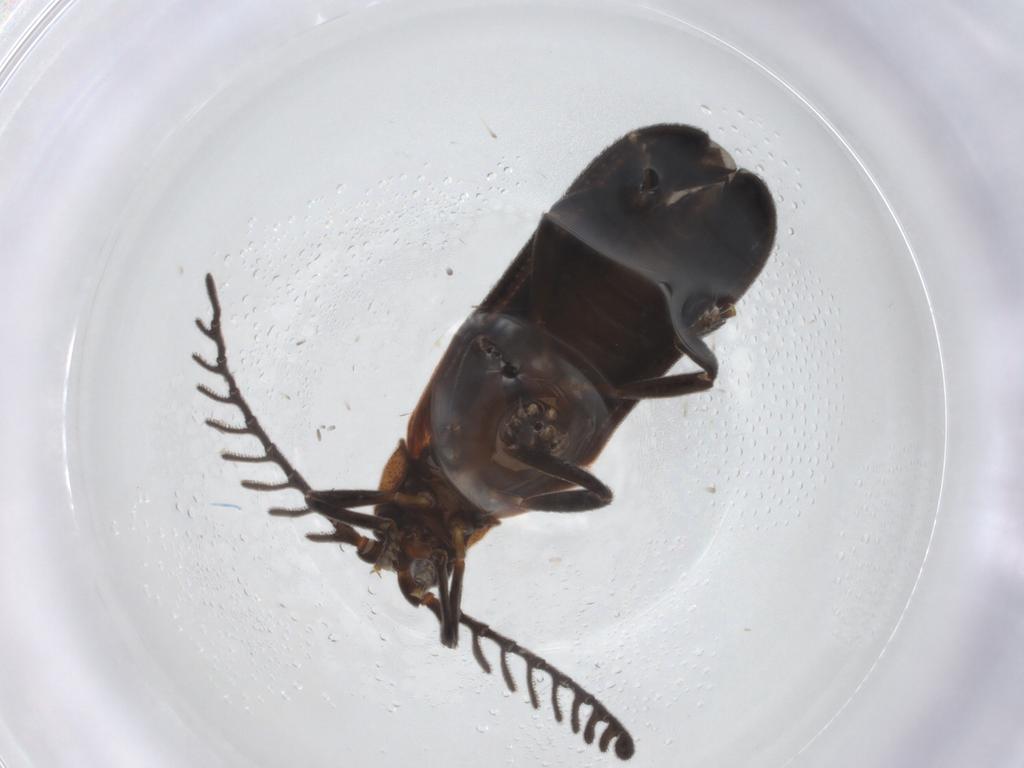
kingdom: Animalia
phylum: Arthropoda
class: Insecta
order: Coleoptera
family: Lycidae
